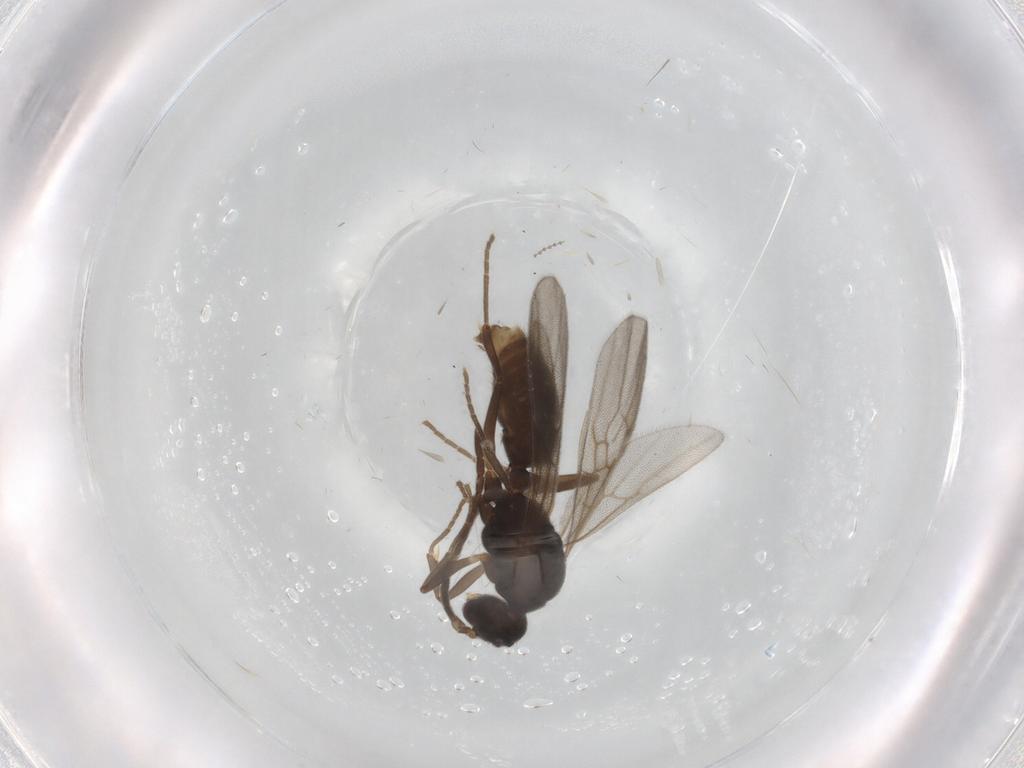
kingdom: Animalia
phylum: Arthropoda
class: Insecta
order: Hymenoptera
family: Formicidae
